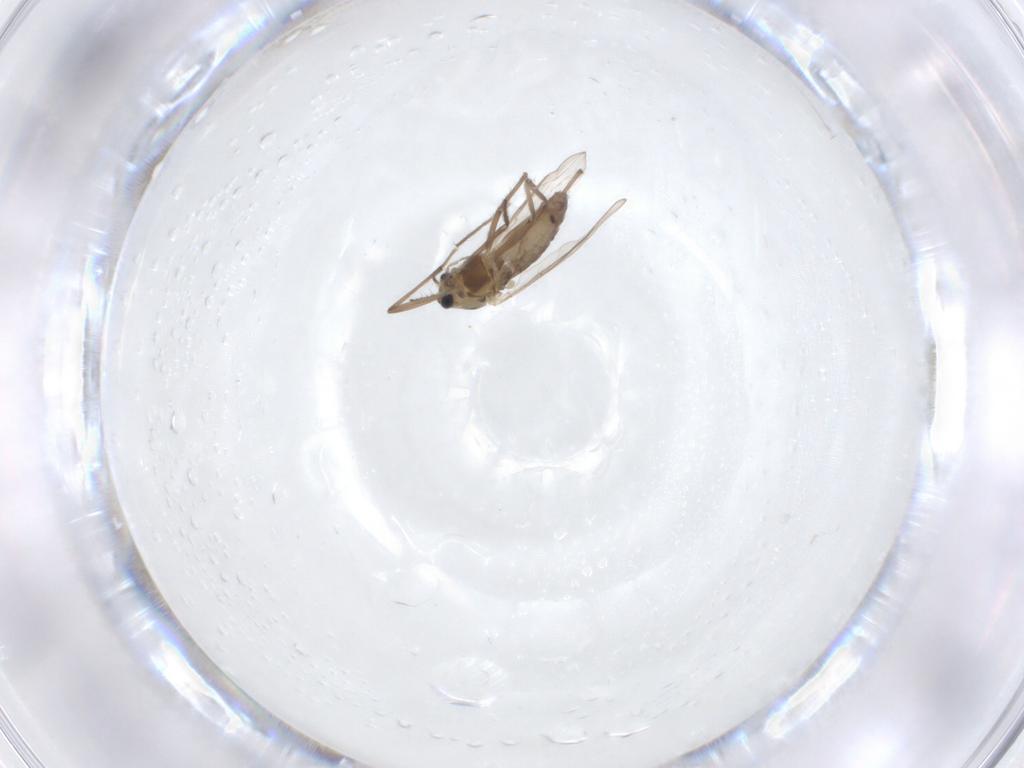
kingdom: Animalia
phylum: Arthropoda
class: Insecta
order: Diptera
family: Chironomidae
